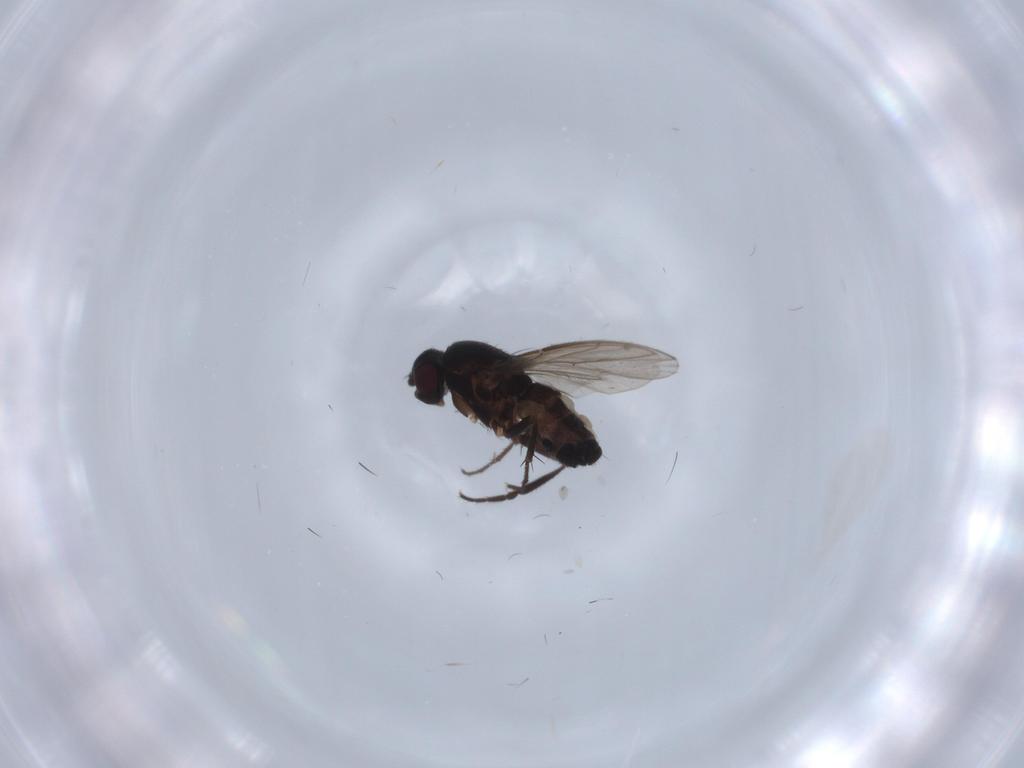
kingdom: Animalia
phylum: Arthropoda
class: Insecta
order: Diptera
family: Sphaeroceridae
